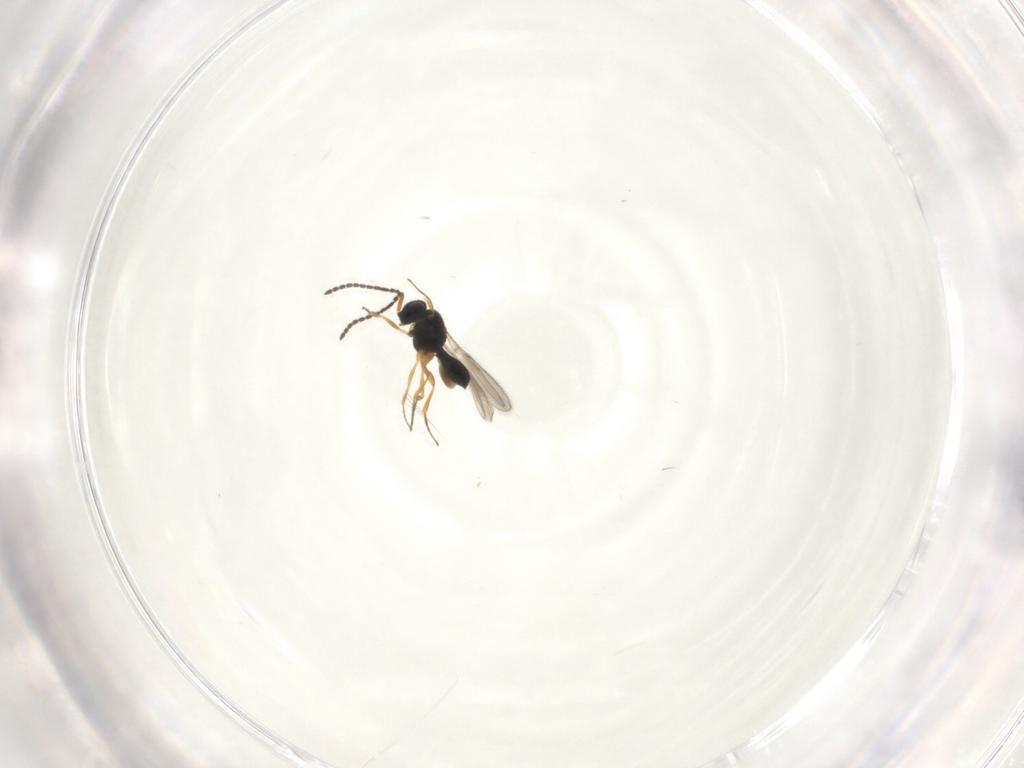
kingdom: Animalia
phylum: Arthropoda
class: Insecta
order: Hymenoptera
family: Scelionidae
